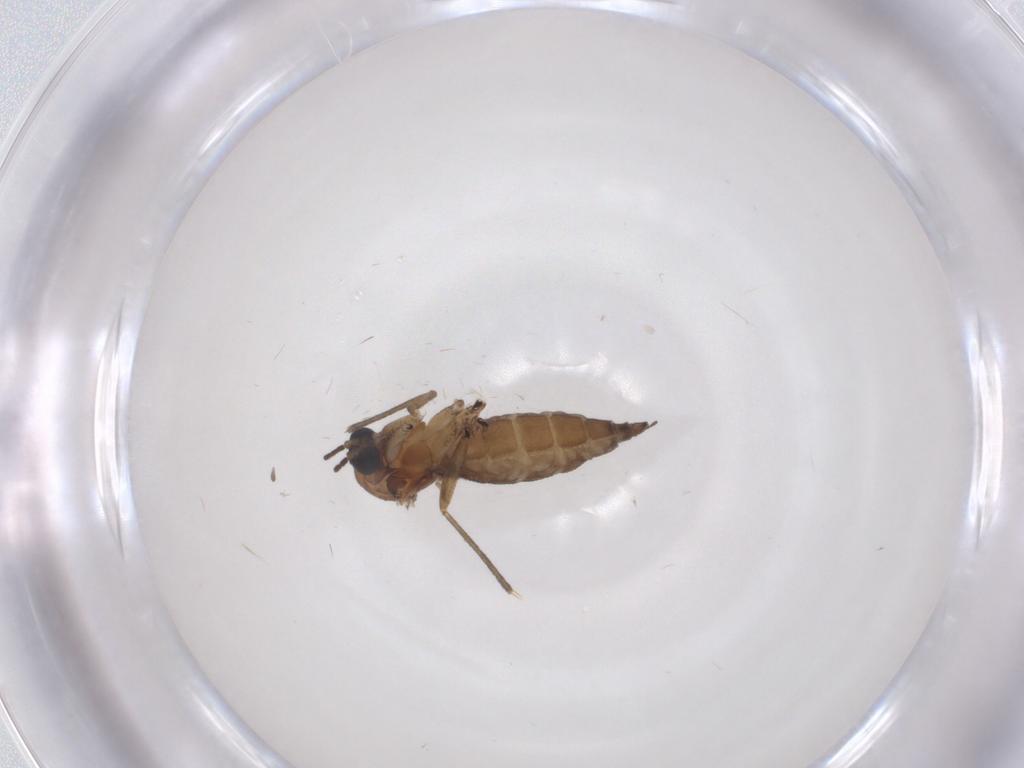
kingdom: Animalia
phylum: Arthropoda
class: Insecta
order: Diptera
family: Sciaridae
